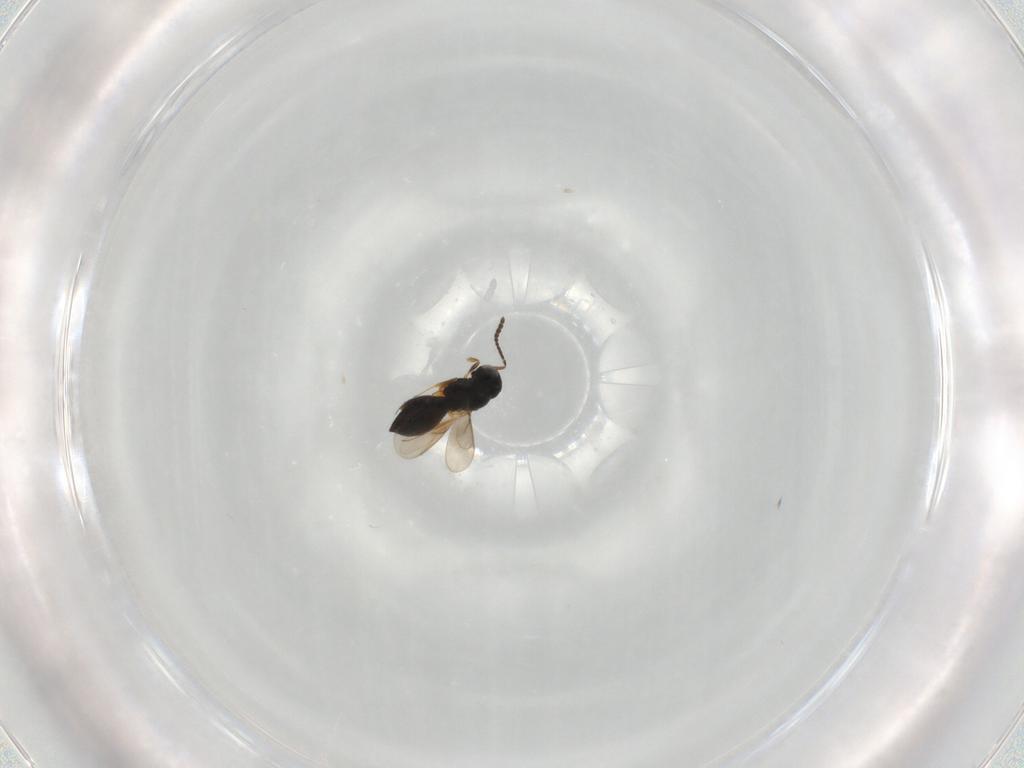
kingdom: Animalia
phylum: Arthropoda
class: Insecta
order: Hymenoptera
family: Scelionidae
